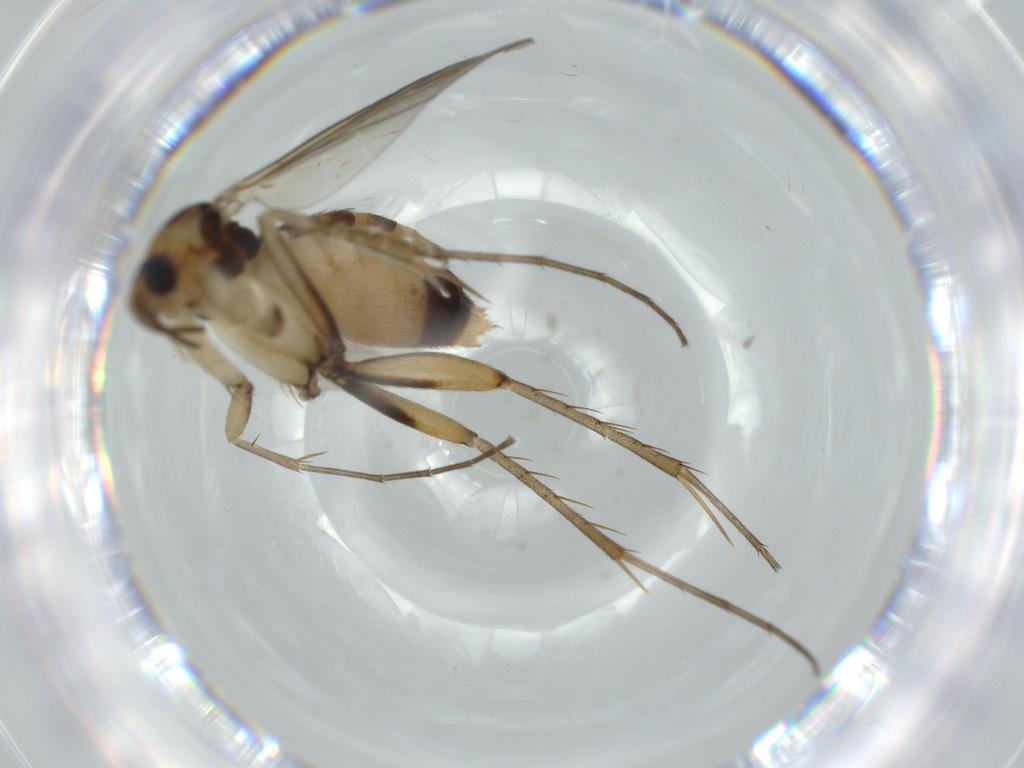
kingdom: Animalia
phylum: Arthropoda
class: Insecta
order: Diptera
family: Mycetophilidae
